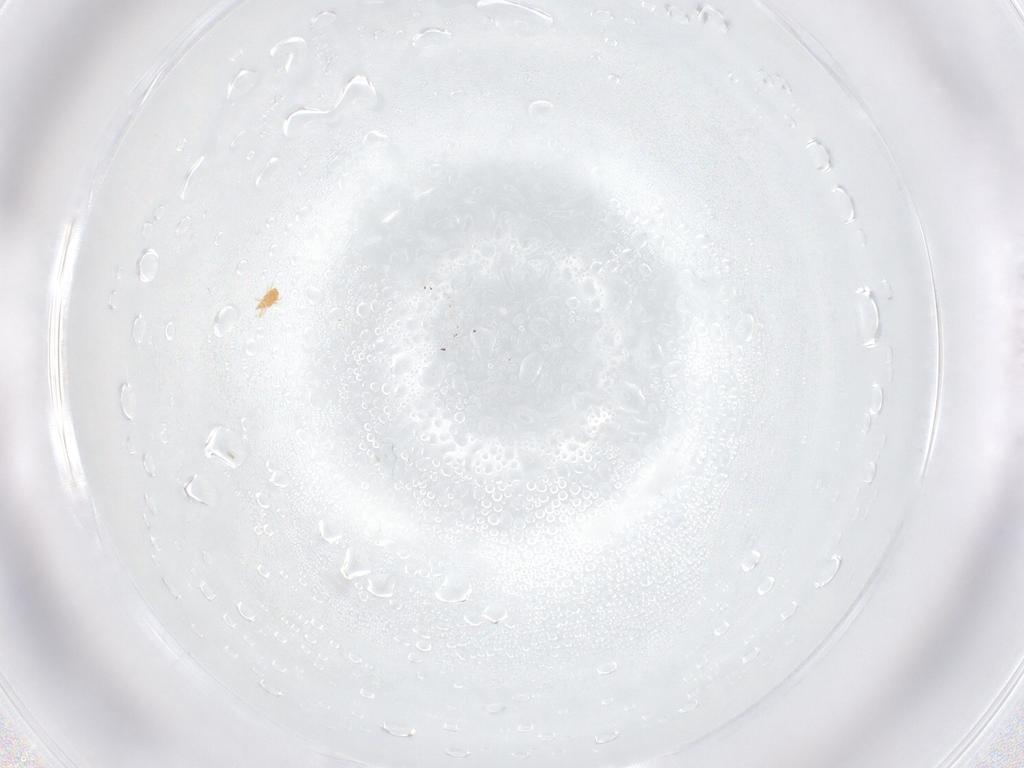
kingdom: Animalia
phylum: Arthropoda
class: Arachnida
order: Trombidiformes
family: Pygmephoridae
